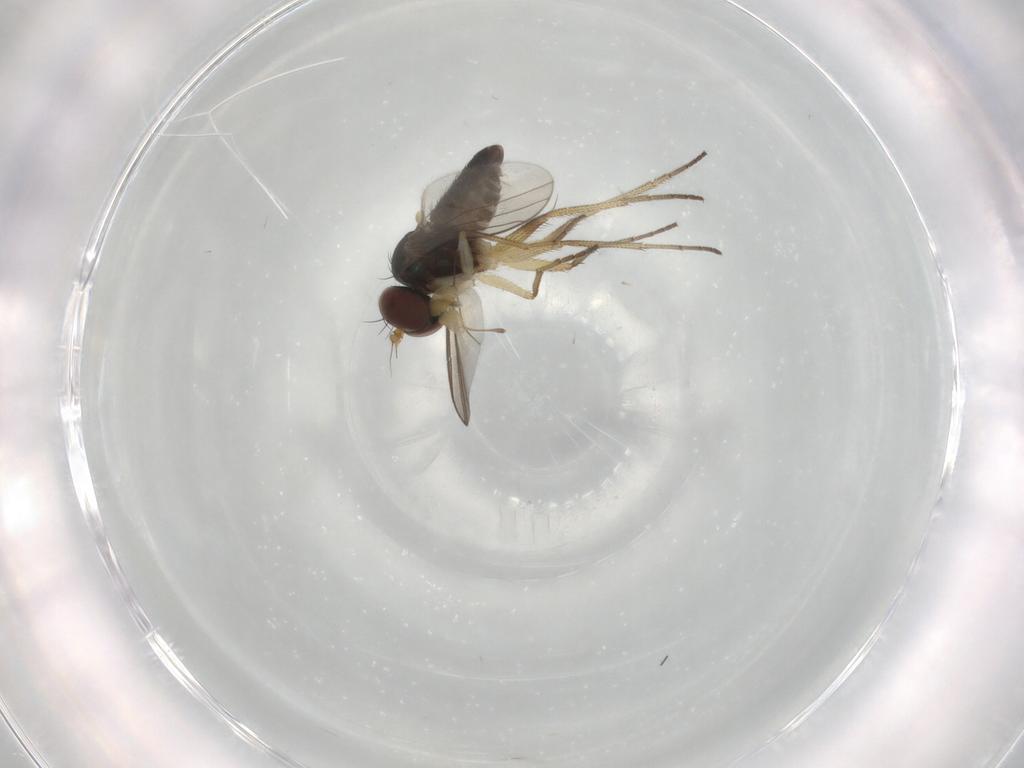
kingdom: Animalia
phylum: Arthropoda
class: Insecta
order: Diptera
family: Dolichopodidae
